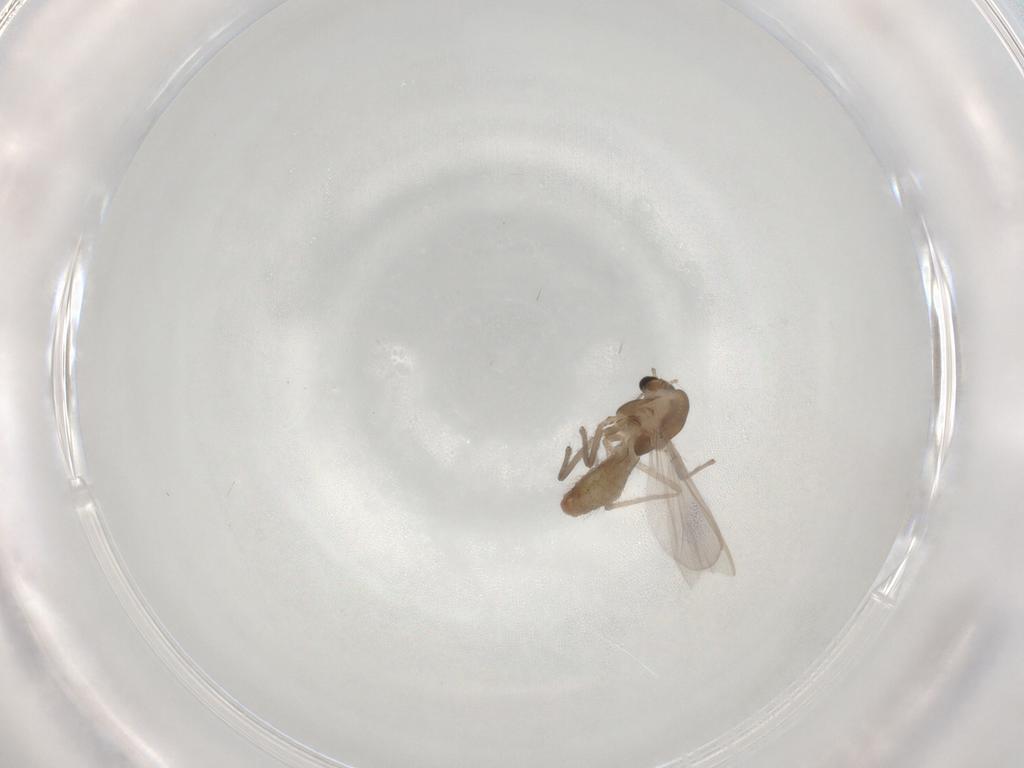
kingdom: Animalia
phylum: Arthropoda
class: Insecta
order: Diptera
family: Chironomidae
